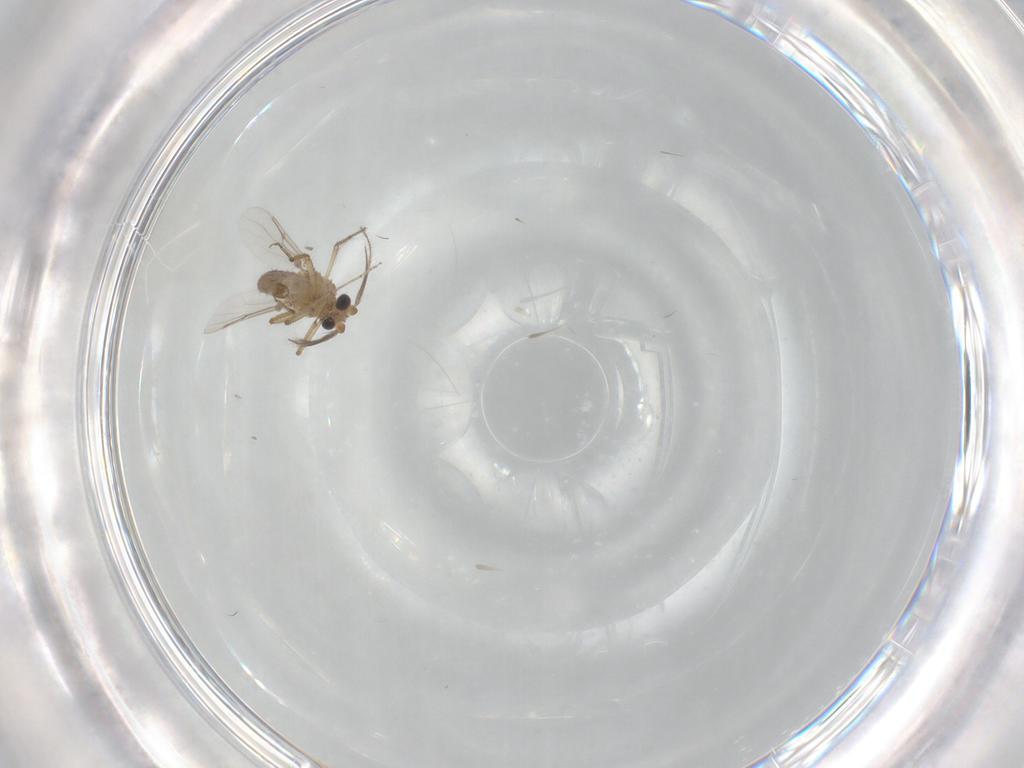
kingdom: Animalia
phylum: Arthropoda
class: Insecta
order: Diptera
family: Ceratopogonidae
